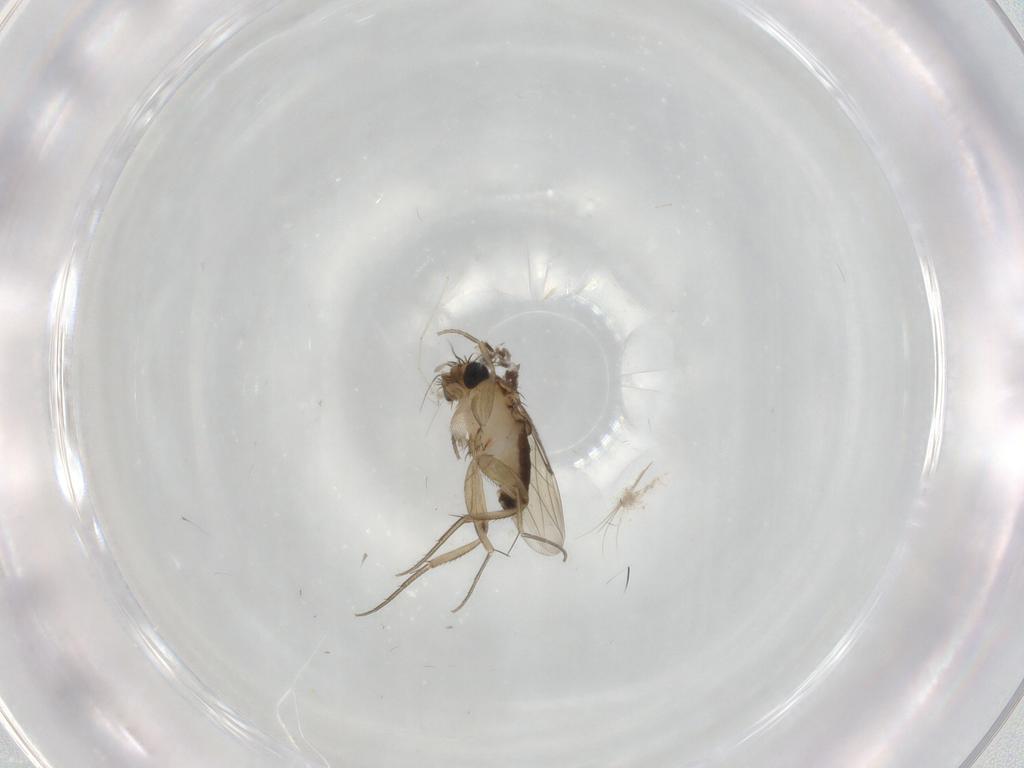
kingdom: Animalia
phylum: Arthropoda
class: Insecta
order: Diptera
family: Phoridae
